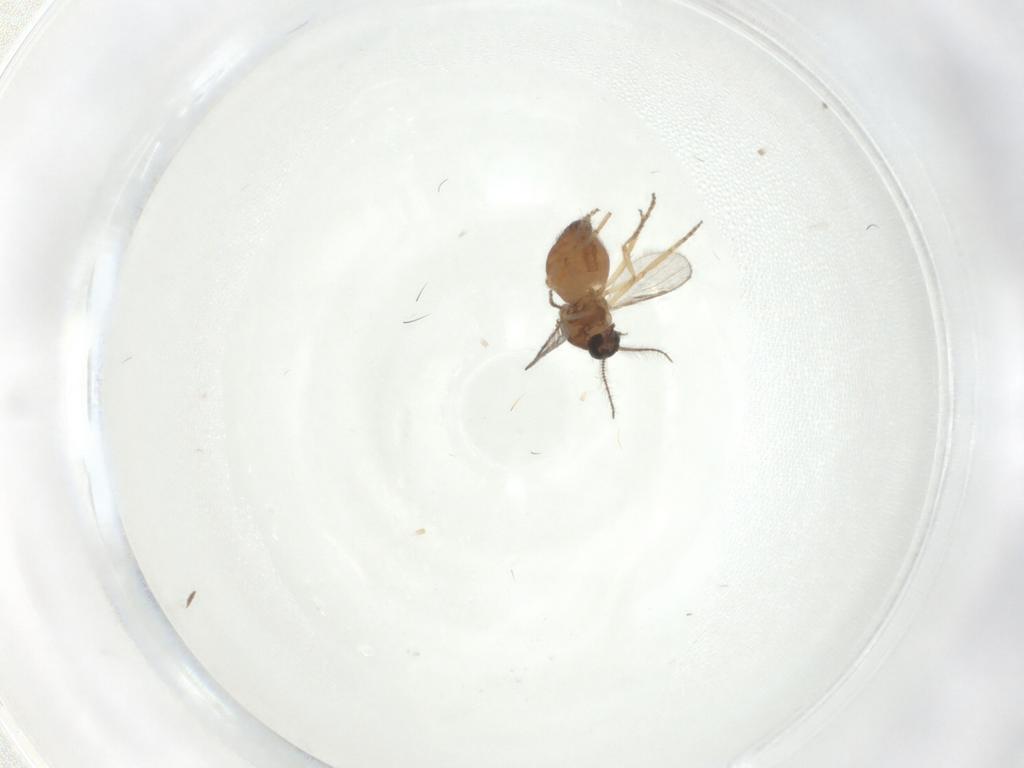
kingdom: Animalia
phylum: Arthropoda
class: Insecta
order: Diptera
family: Ceratopogonidae
